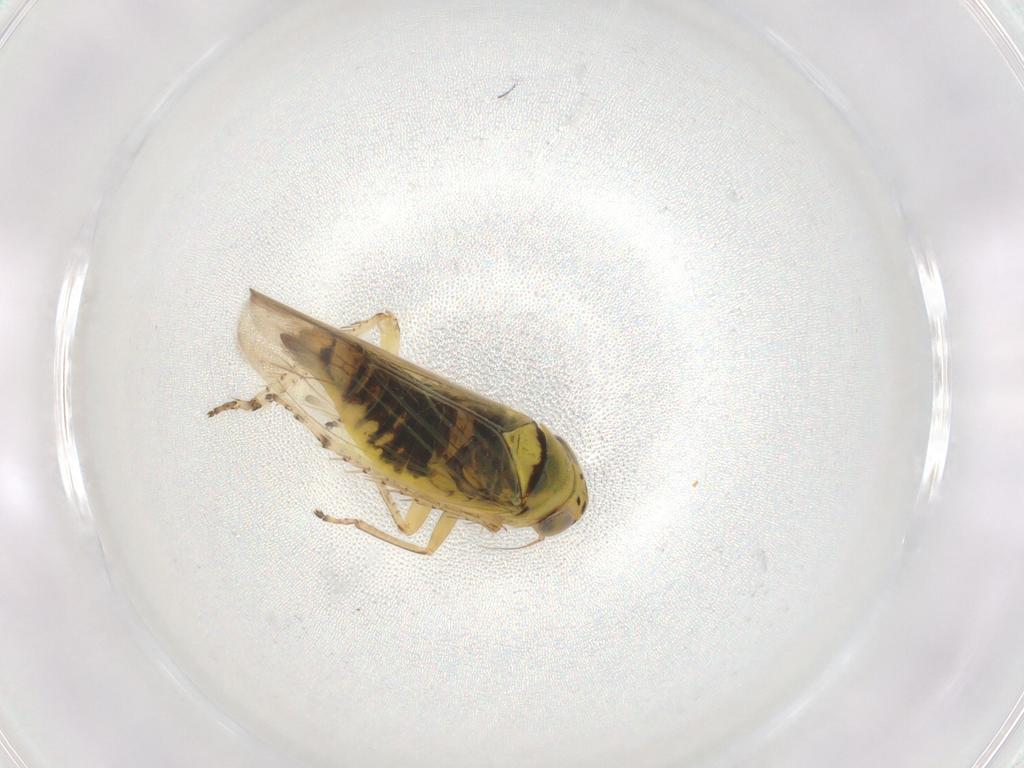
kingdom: Animalia
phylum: Arthropoda
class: Insecta
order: Hemiptera
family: Cicadellidae
